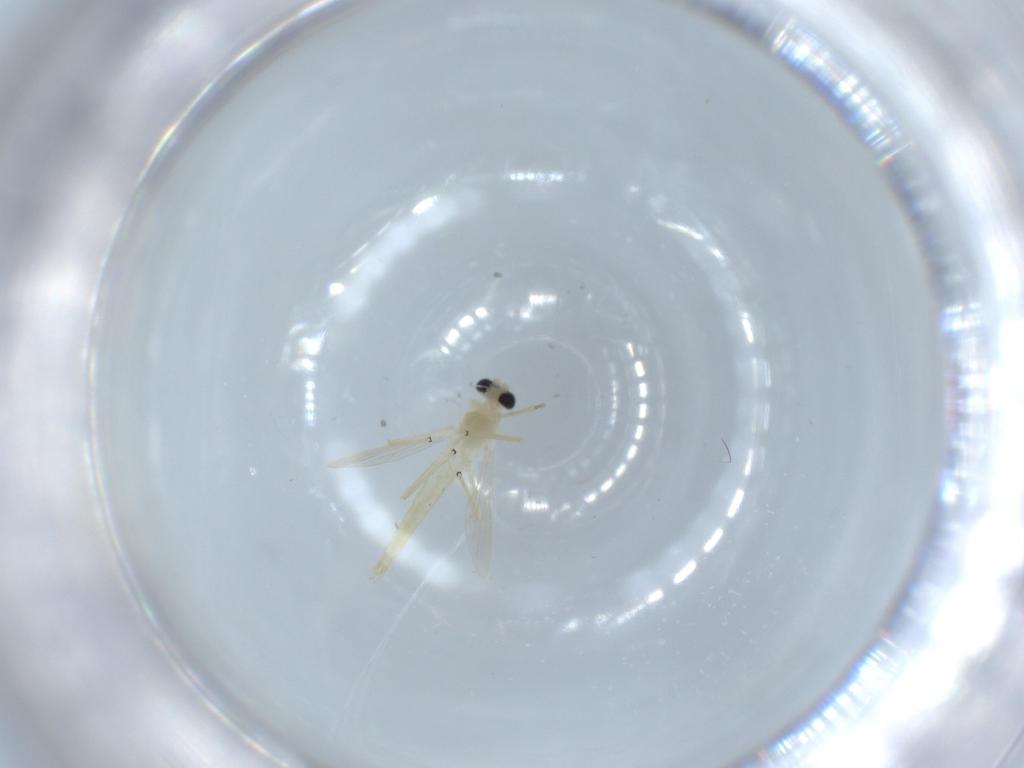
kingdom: Animalia
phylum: Arthropoda
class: Insecta
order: Diptera
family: Chironomidae
